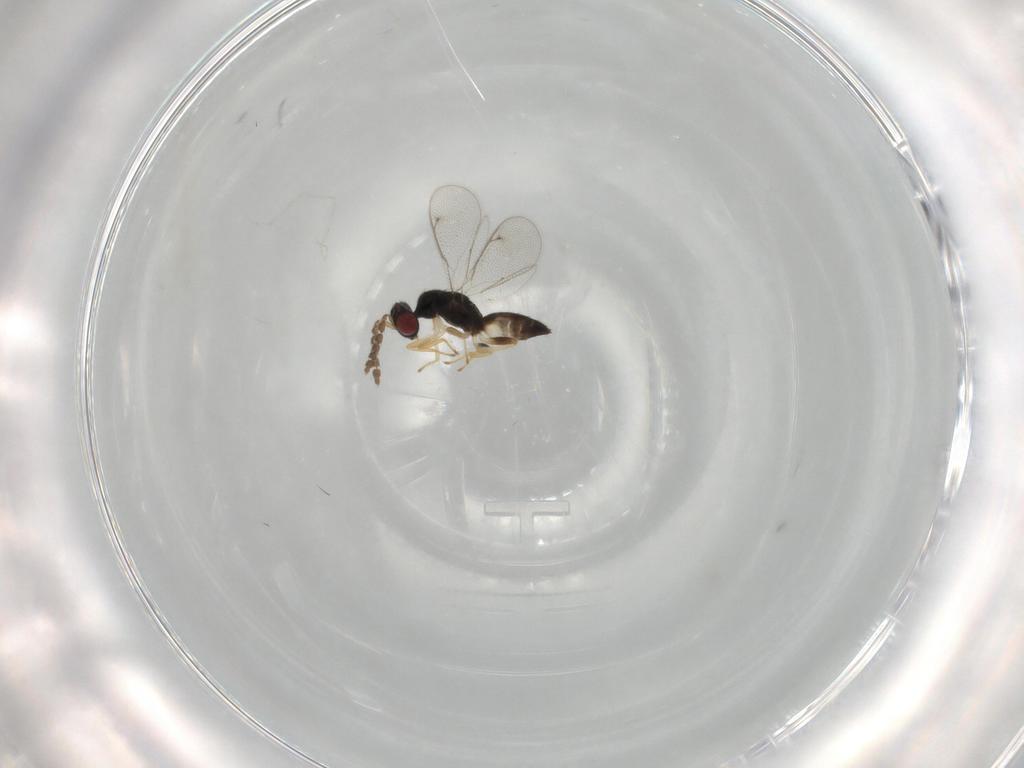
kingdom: Animalia
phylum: Arthropoda
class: Insecta
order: Hymenoptera
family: Eulophidae
